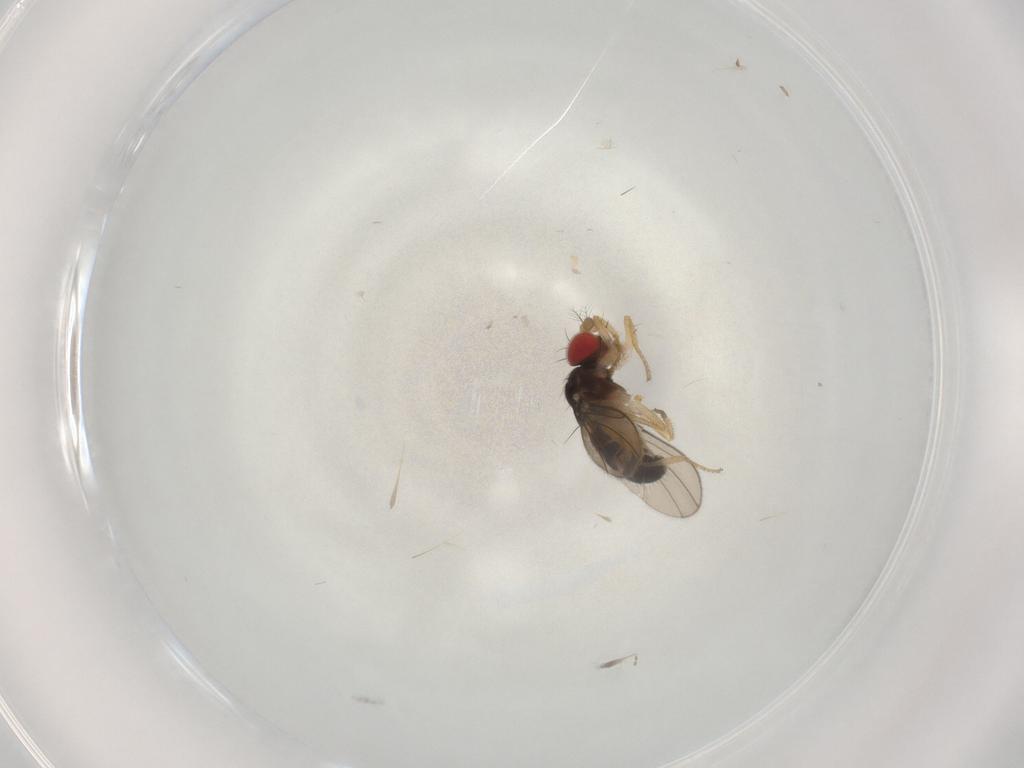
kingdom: Animalia
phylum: Arthropoda
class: Insecta
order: Diptera
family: Drosophilidae
